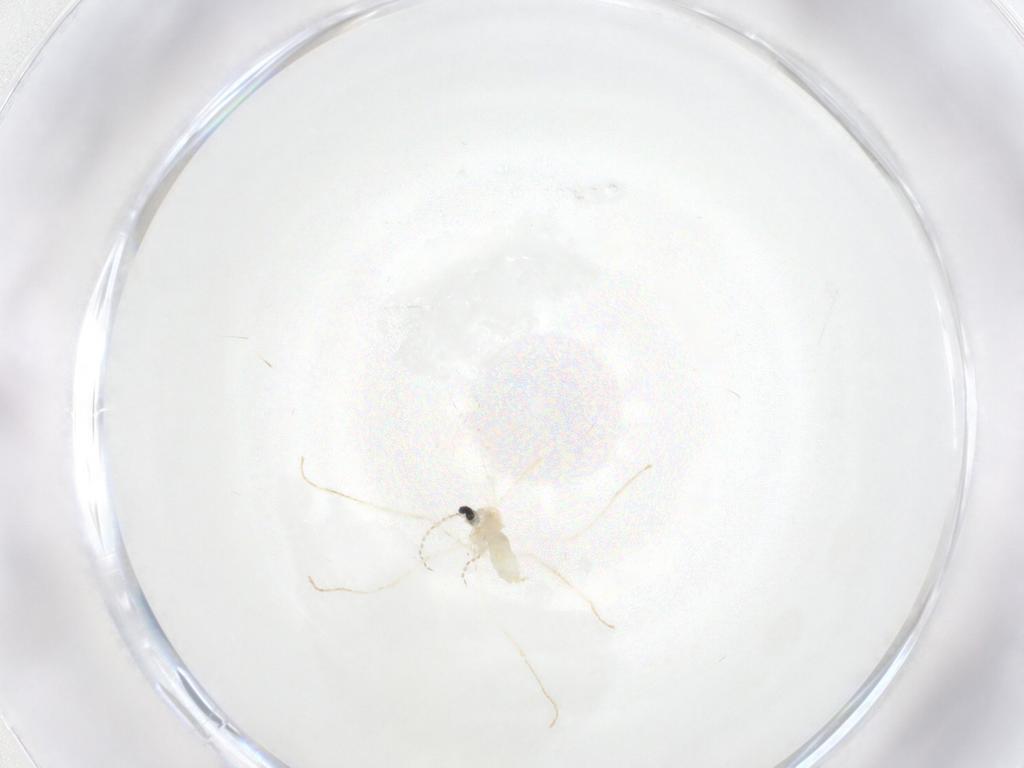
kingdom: Animalia
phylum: Arthropoda
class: Insecta
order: Diptera
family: Cecidomyiidae
